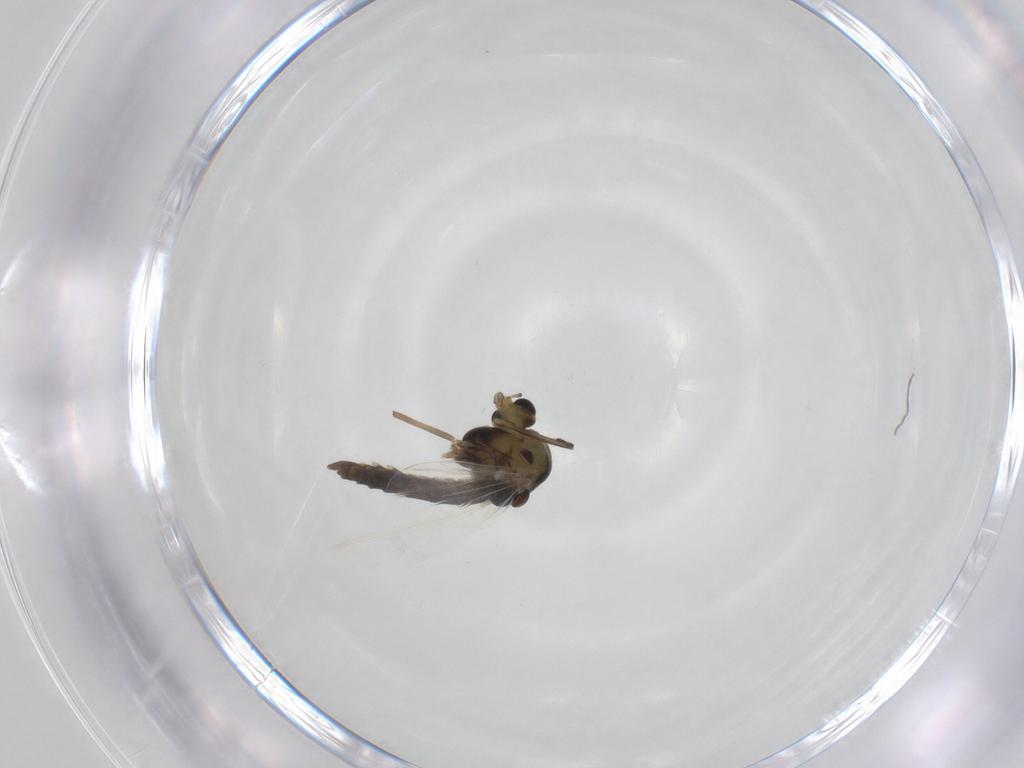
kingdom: Animalia
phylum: Arthropoda
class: Insecta
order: Diptera
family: Chironomidae
